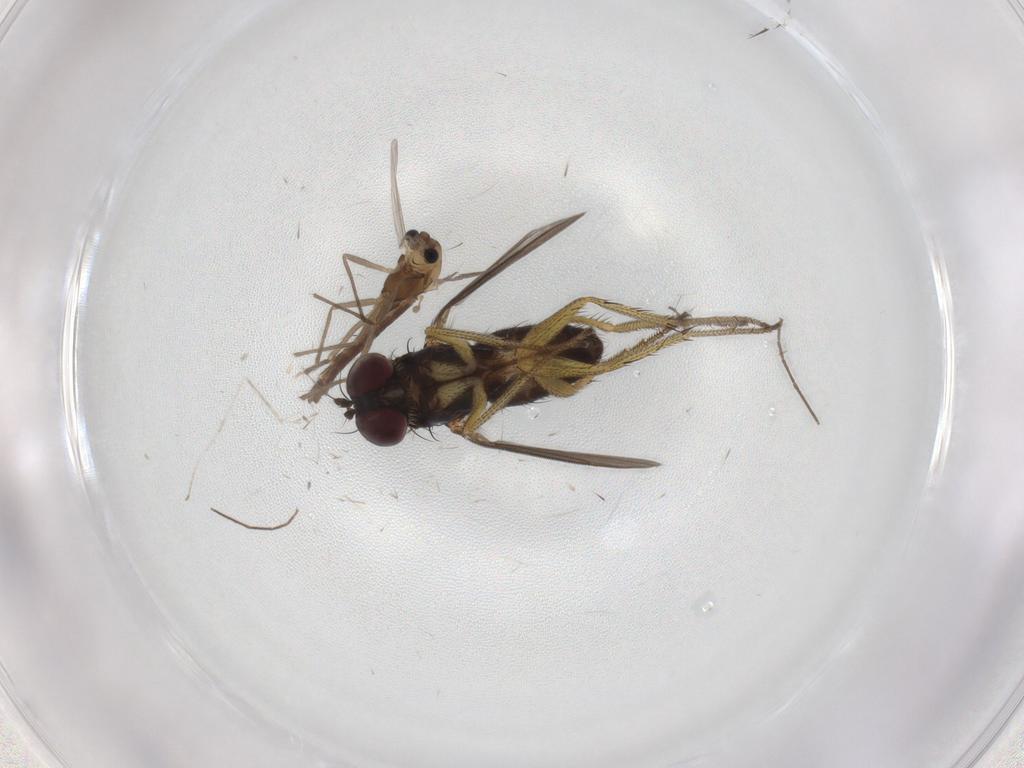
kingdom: Animalia
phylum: Arthropoda
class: Insecta
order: Diptera
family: Dolichopodidae
